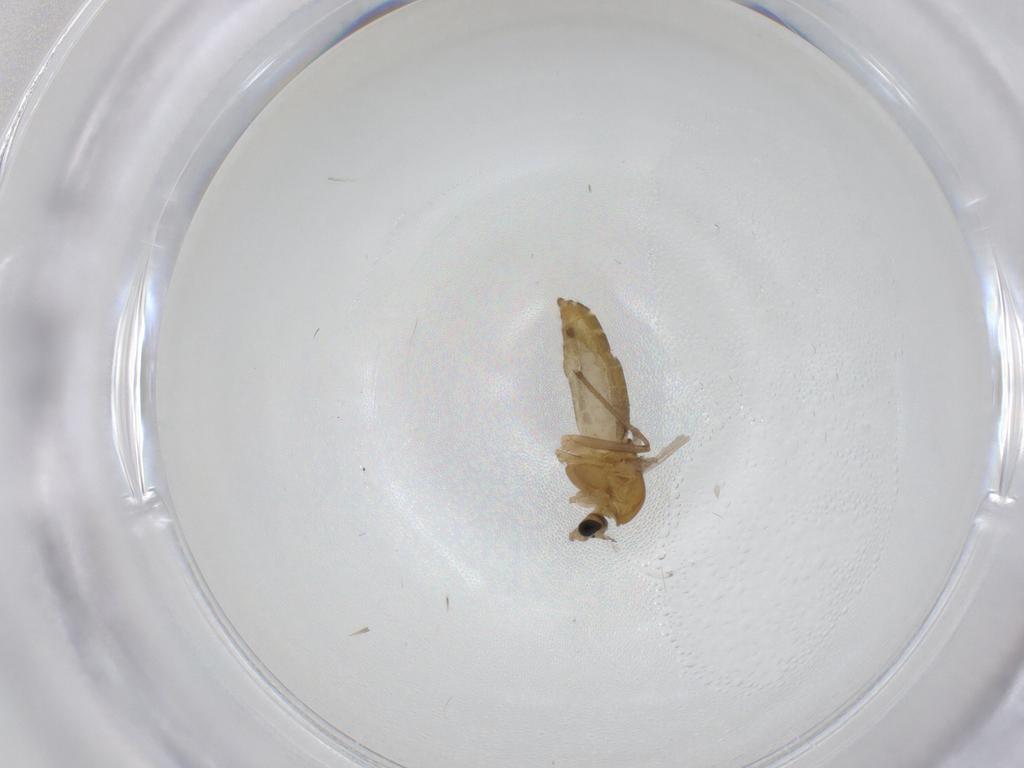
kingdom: Animalia
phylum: Arthropoda
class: Insecta
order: Diptera
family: Chironomidae
